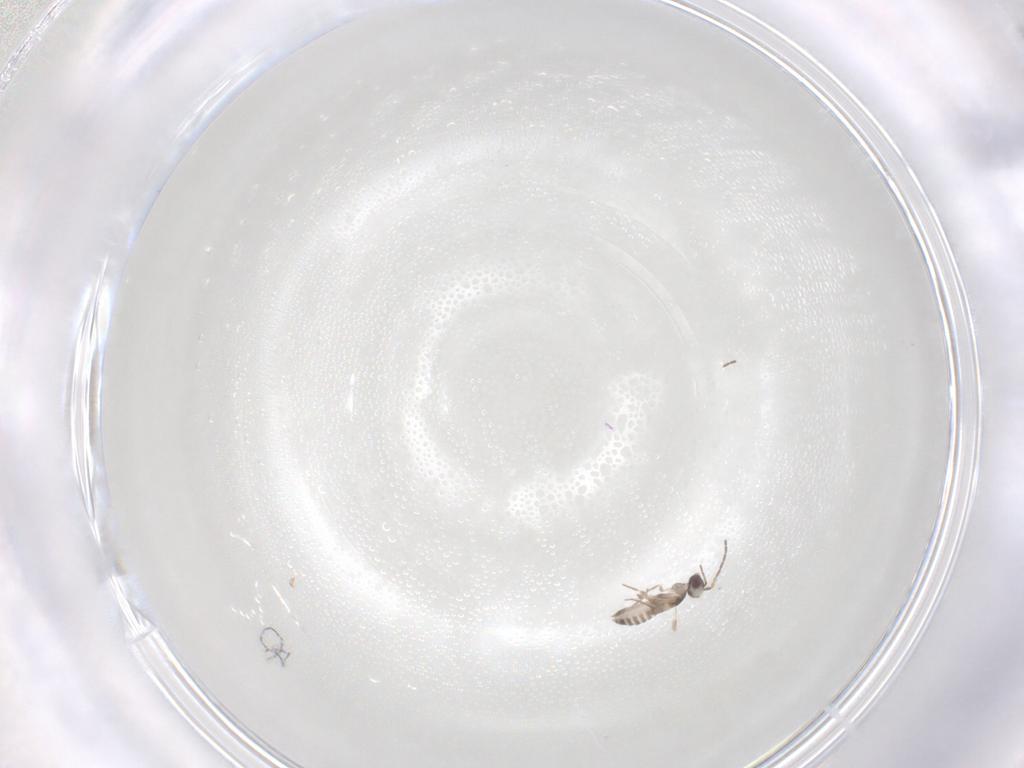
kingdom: Animalia
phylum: Arthropoda
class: Insecta
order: Hymenoptera
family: Mymaridae
